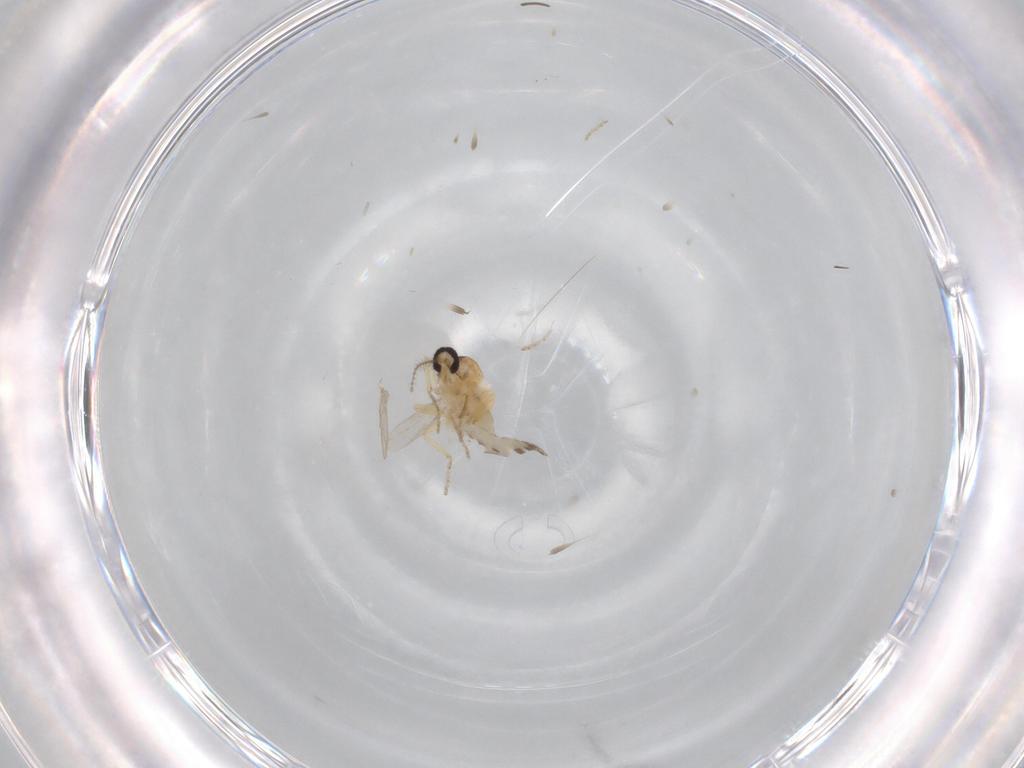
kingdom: Animalia
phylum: Arthropoda
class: Insecta
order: Diptera
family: Ceratopogonidae
